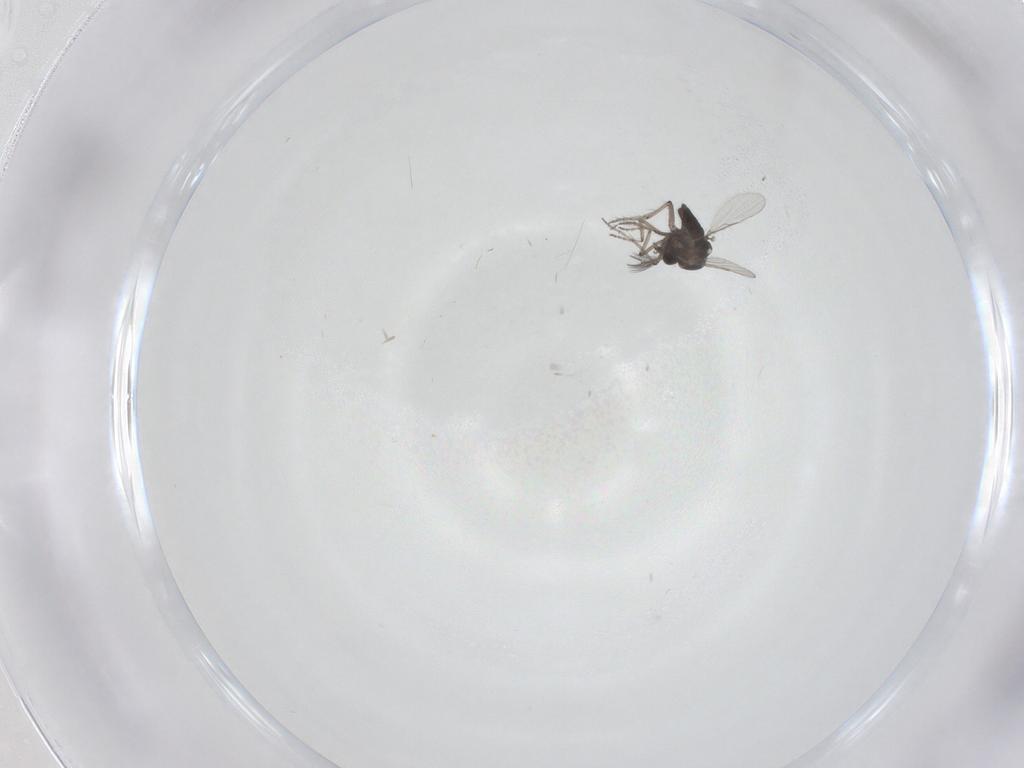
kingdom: Animalia
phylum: Arthropoda
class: Insecta
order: Diptera
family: Ceratopogonidae
